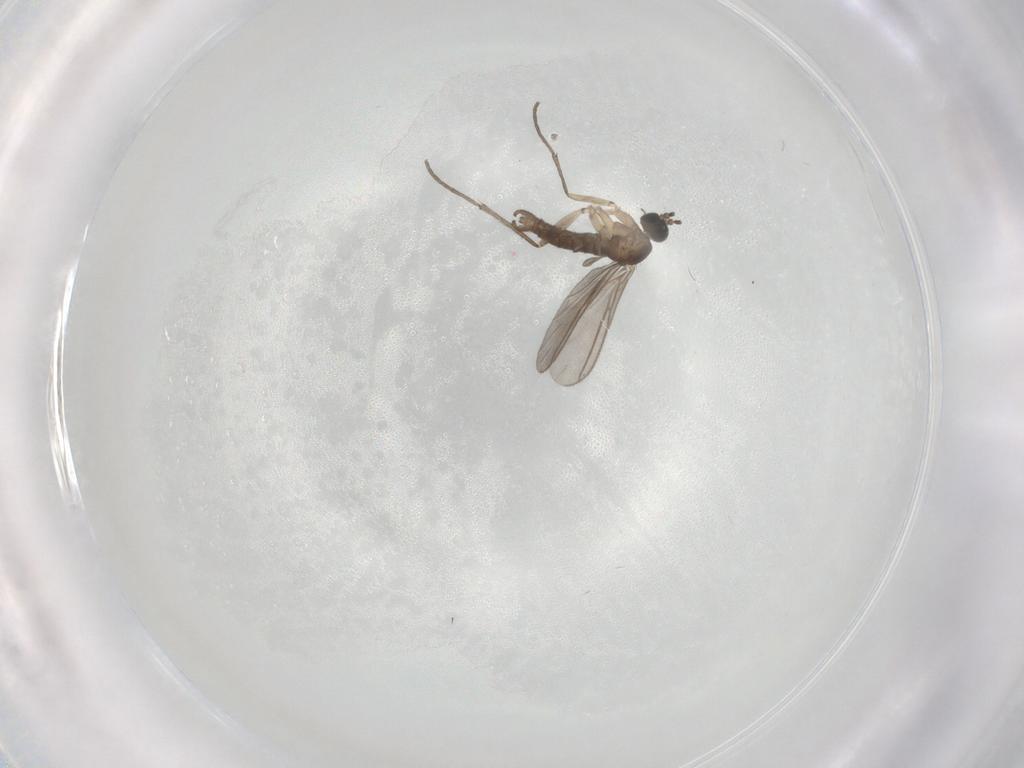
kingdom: Animalia
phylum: Arthropoda
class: Insecta
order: Diptera
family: Sciaridae
